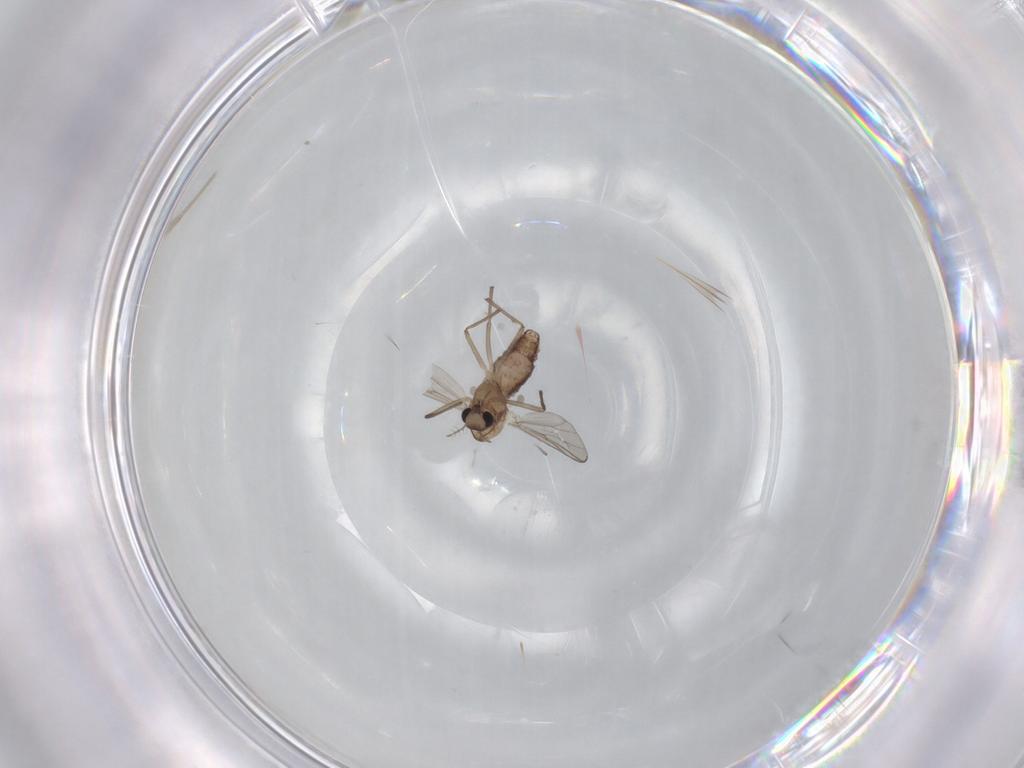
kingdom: Animalia
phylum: Arthropoda
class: Insecta
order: Diptera
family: Chironomidae
